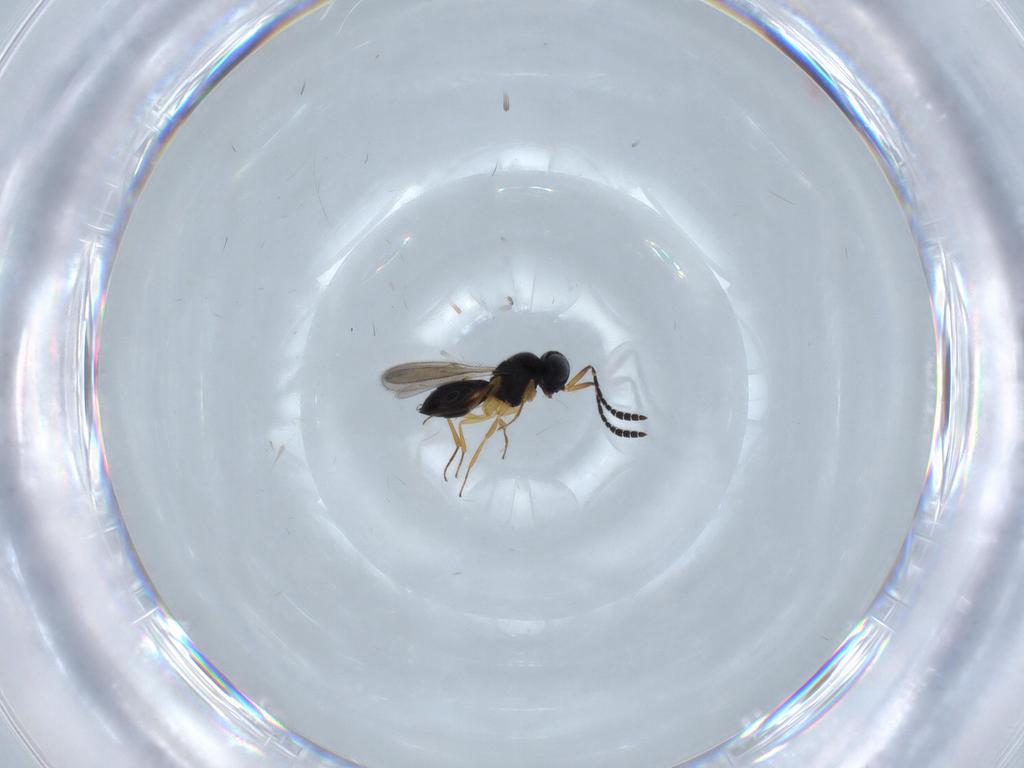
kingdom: Animalia
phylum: Arthropoda
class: Insecta
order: Hymenoptera
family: Scelionidae
